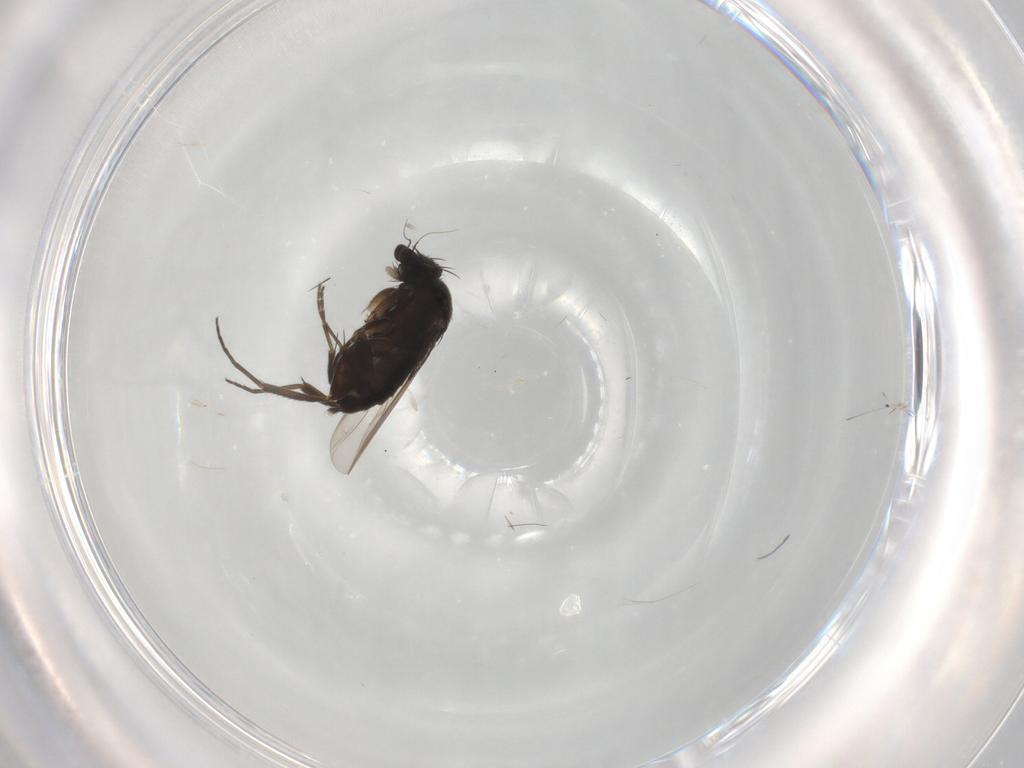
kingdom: Animalia
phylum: Arthropoda
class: Insecta
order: Diptera
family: Phoridae
